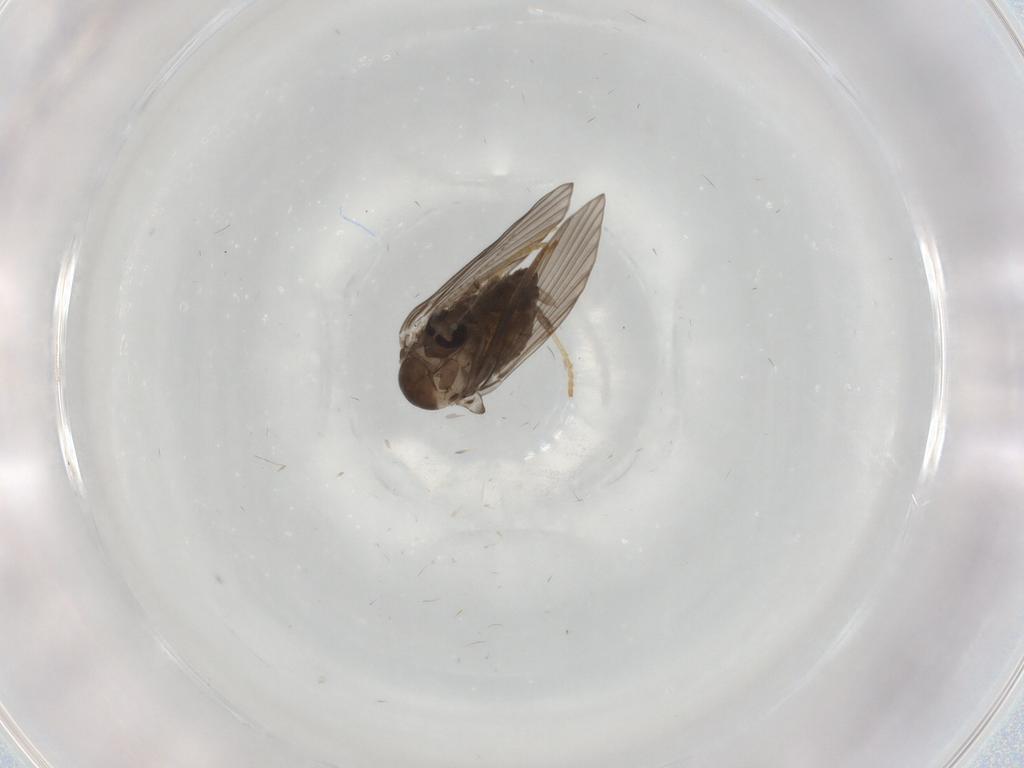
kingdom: Animalia
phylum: Arthropoda
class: Insecta
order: Diptera
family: Psychodidae
